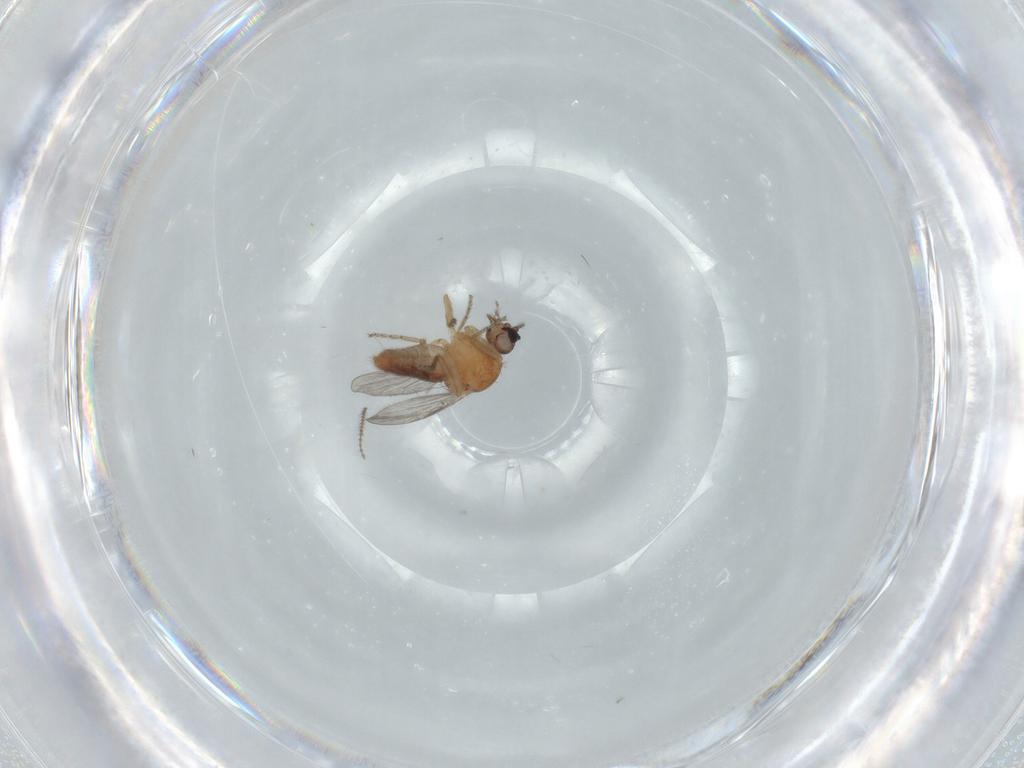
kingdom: Animalia
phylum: Arthropoda
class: Insecta
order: Diptera
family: Ceratopogonidae
